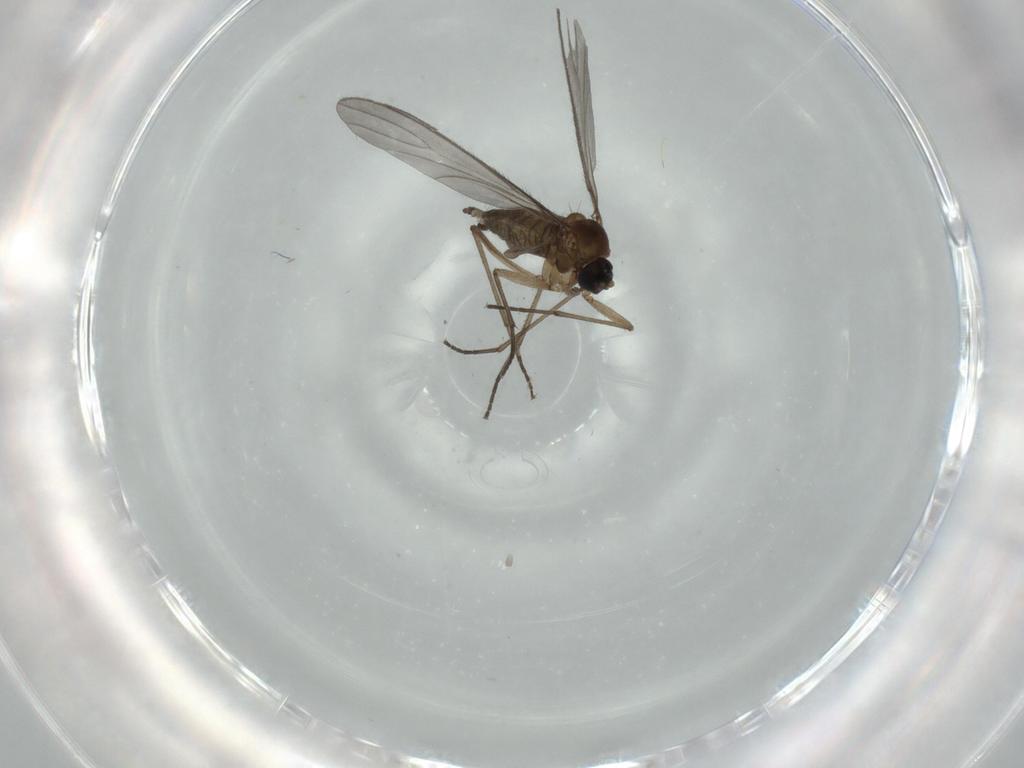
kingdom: Animalia
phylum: Arthropoda
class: Insecta
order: Diptera
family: Sciaridae
